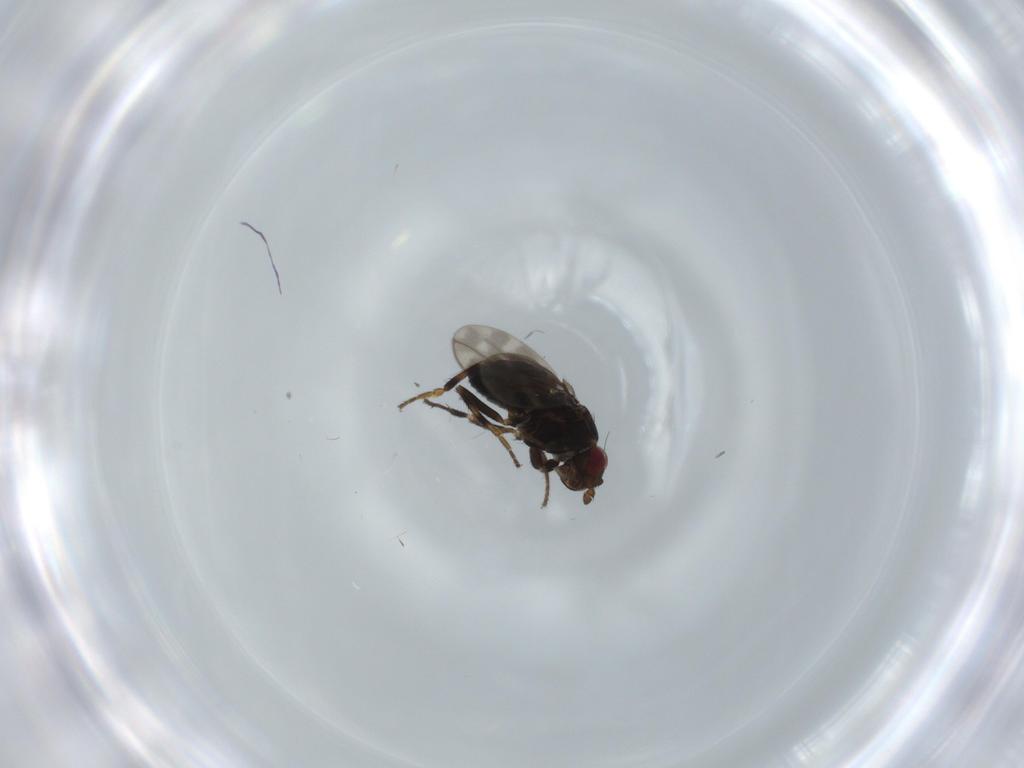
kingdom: Animalia
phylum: Arthropoda
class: Insecta
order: Diptera
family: Sphaeroceridae
